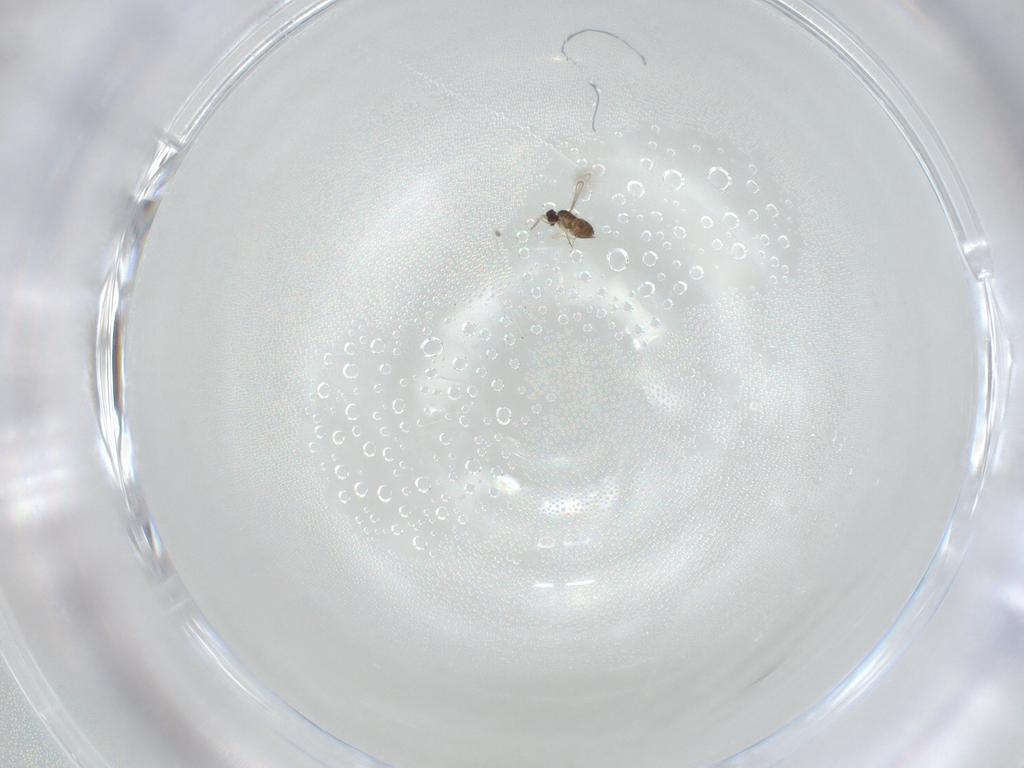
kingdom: Animalia
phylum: Arthropoda
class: Insecta
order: Hymenoptera
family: Mymaridae
